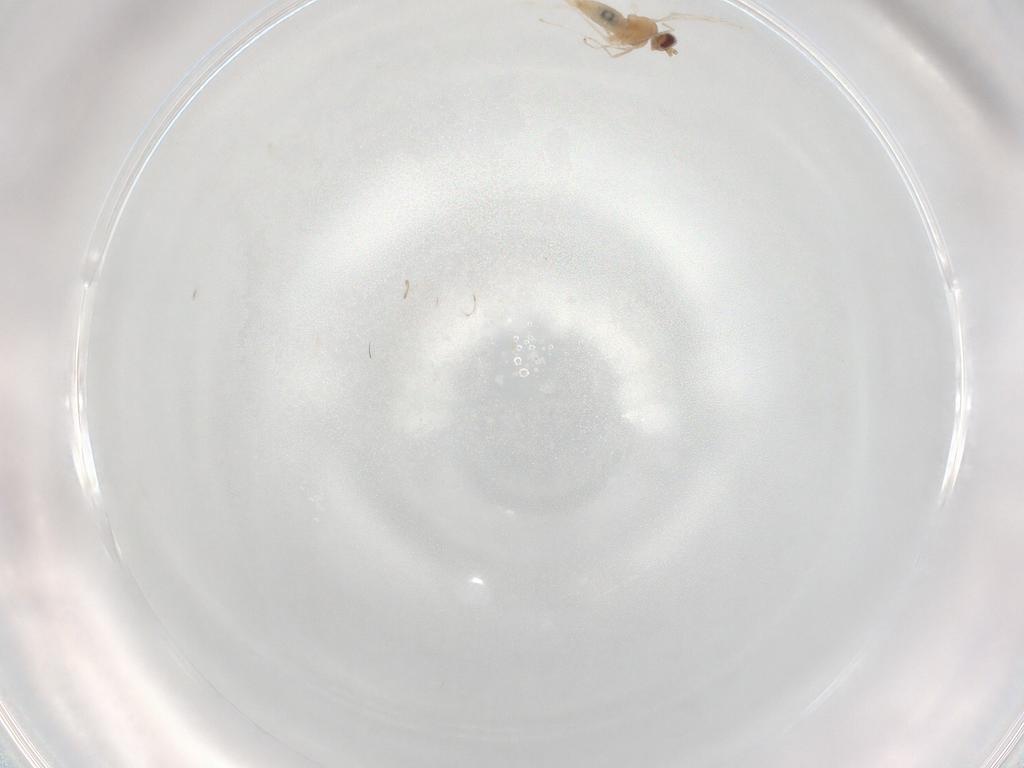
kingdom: Animalia
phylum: Arthropoda
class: Insecta
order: Diptera
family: Cecidomyiidae
